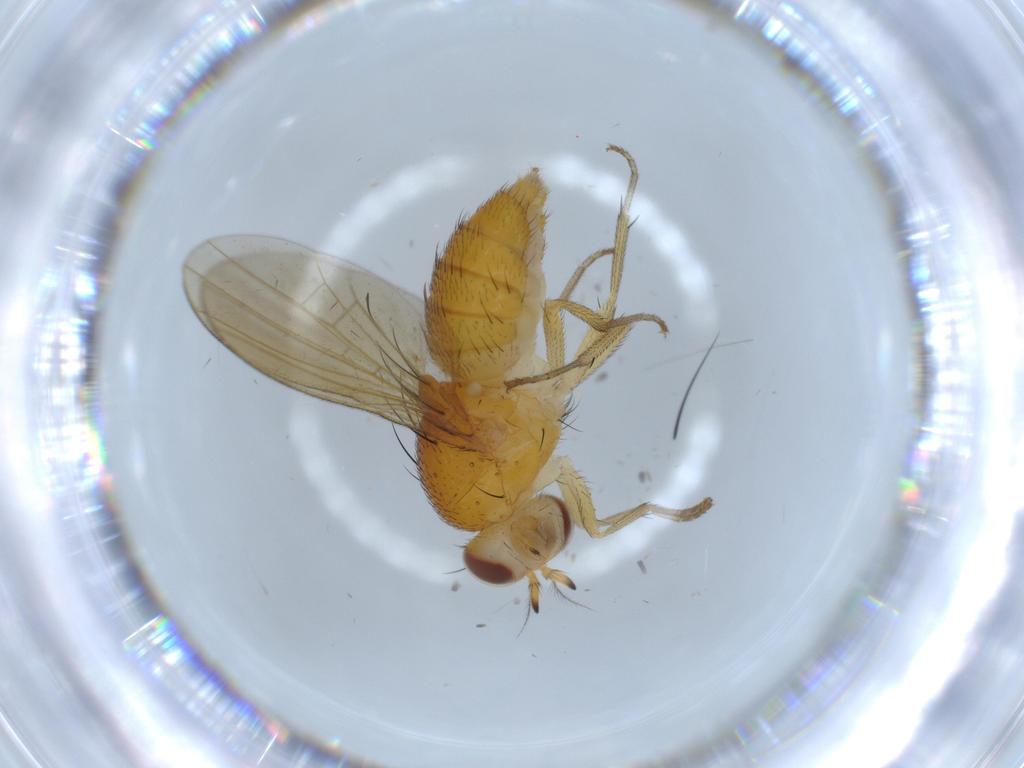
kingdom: Animalia
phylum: Arthropoda
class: Insecta
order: Diptera
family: Lauxaniidae
